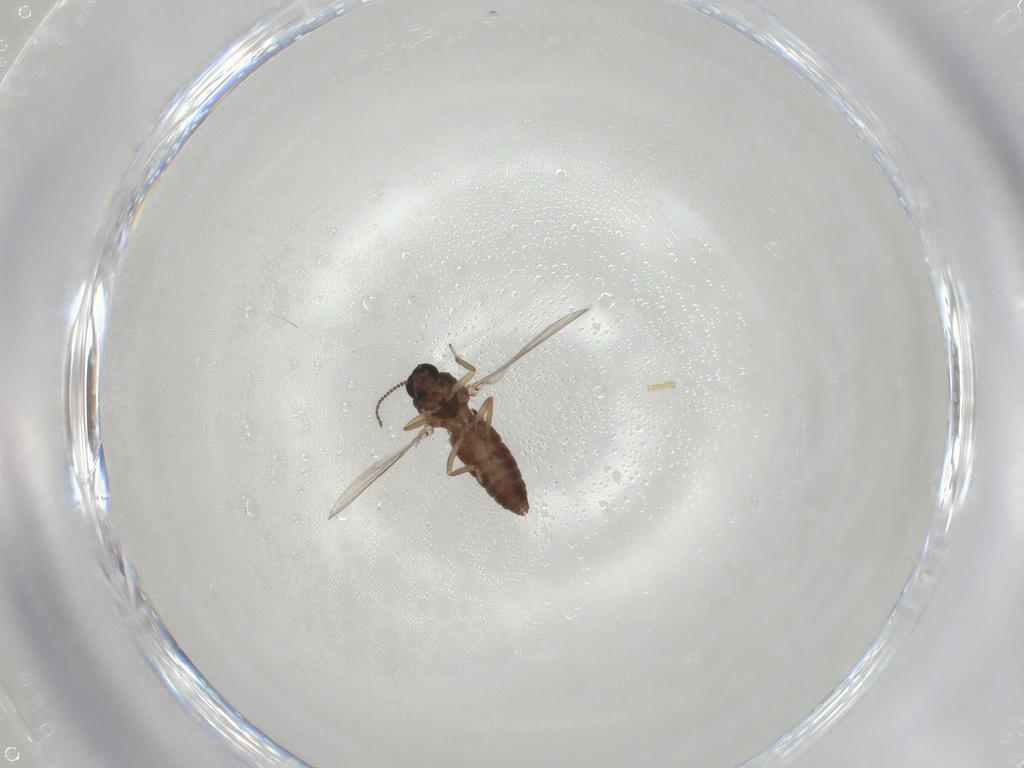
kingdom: Animalia
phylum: Arthropoda
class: Insecta
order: Diptera
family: Ceratopogonidae
